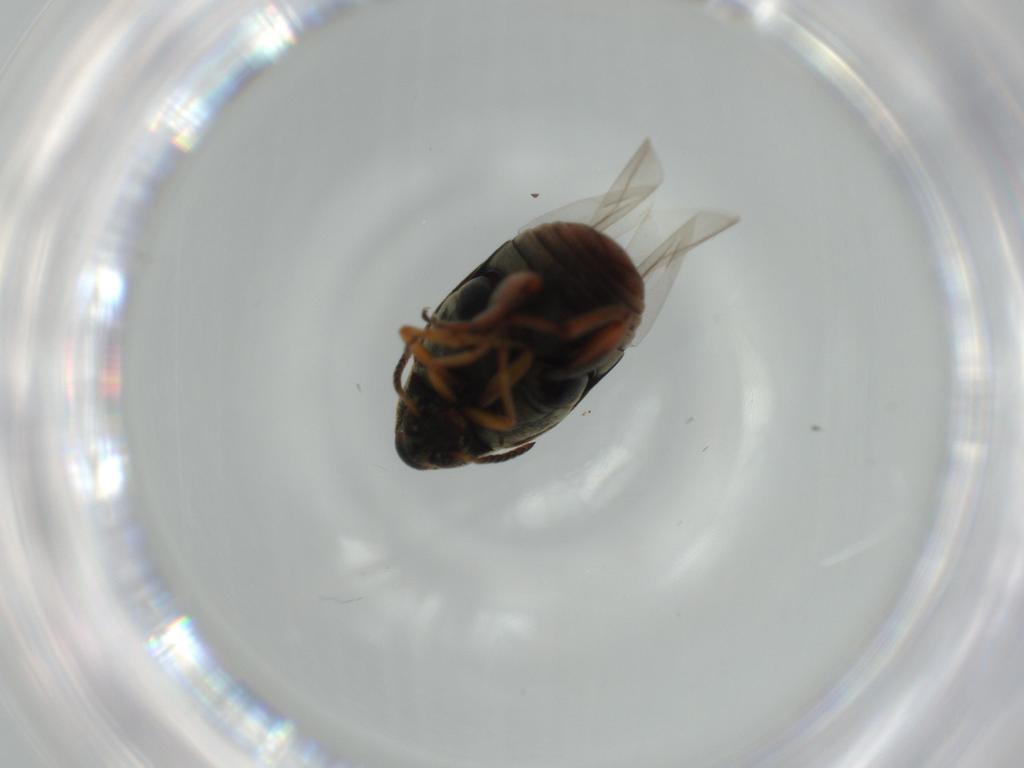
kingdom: Animalia
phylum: Arthropoda
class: Insecta
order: Coleoptera
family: Chrysomelidae
